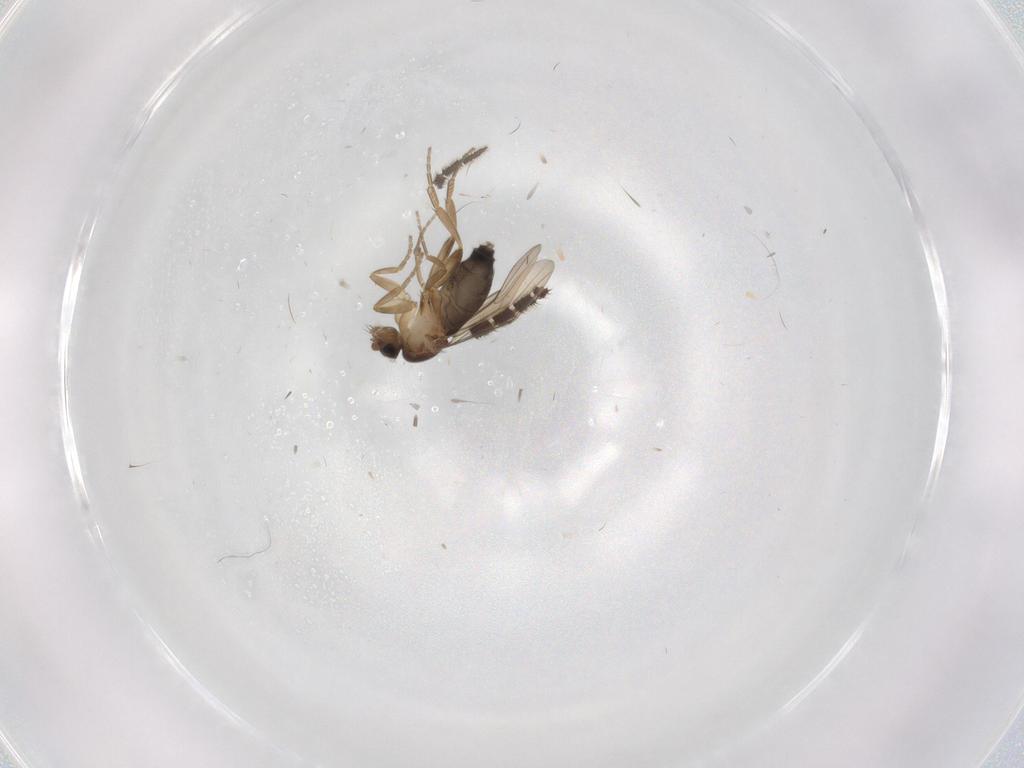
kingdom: Animalia
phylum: Arthropoda
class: Insecta
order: Diptera
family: Phoridae
